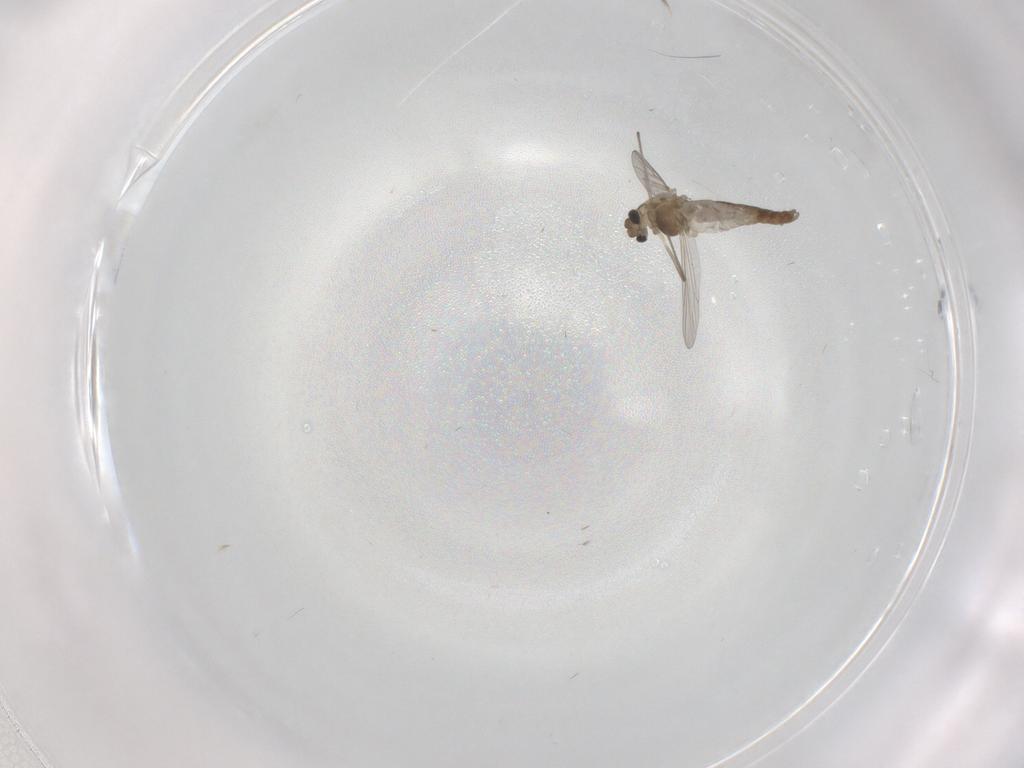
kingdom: Animalia
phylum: Arthropoda
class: Insecta
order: Diptera
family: Chironomidae
